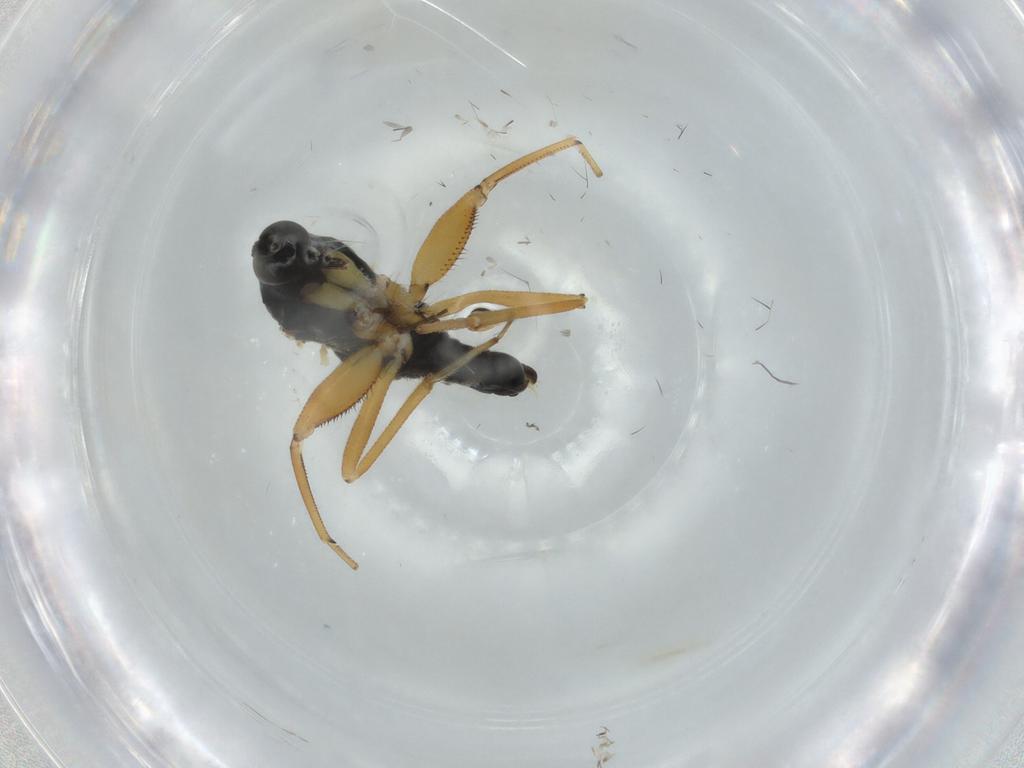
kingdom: Animalia
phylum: Arthropoda
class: Insecta
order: Diptera
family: Hybotidae
